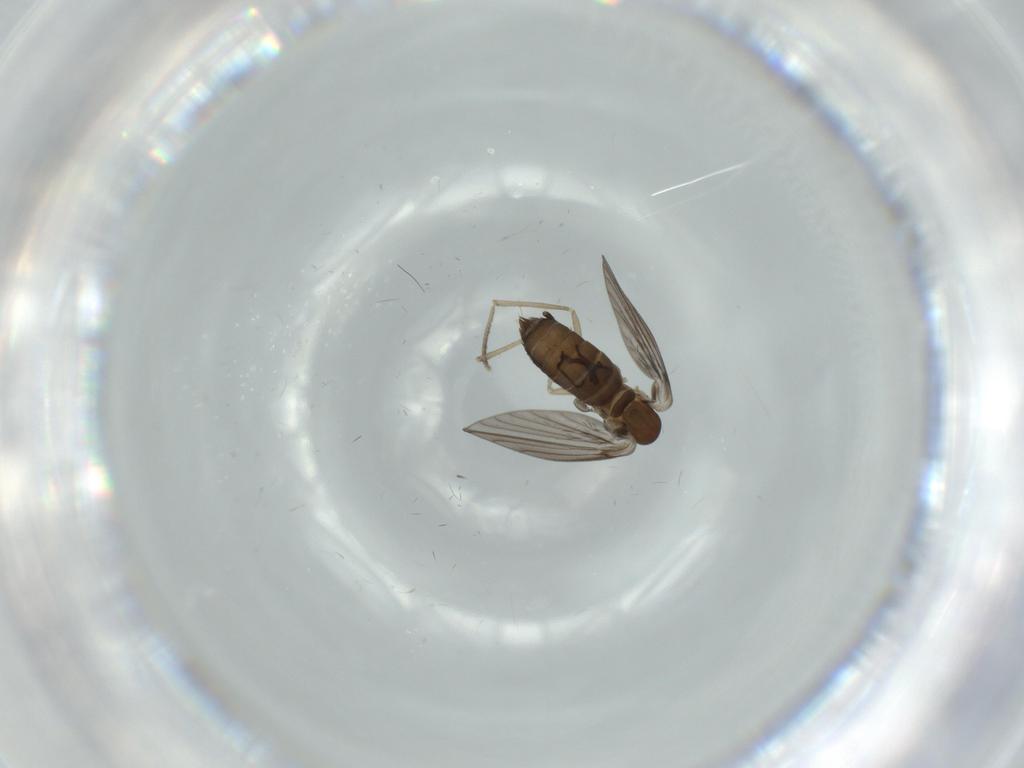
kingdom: Animalia
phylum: Arthropoda
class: Insecta
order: Diptera
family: Psychodidae
